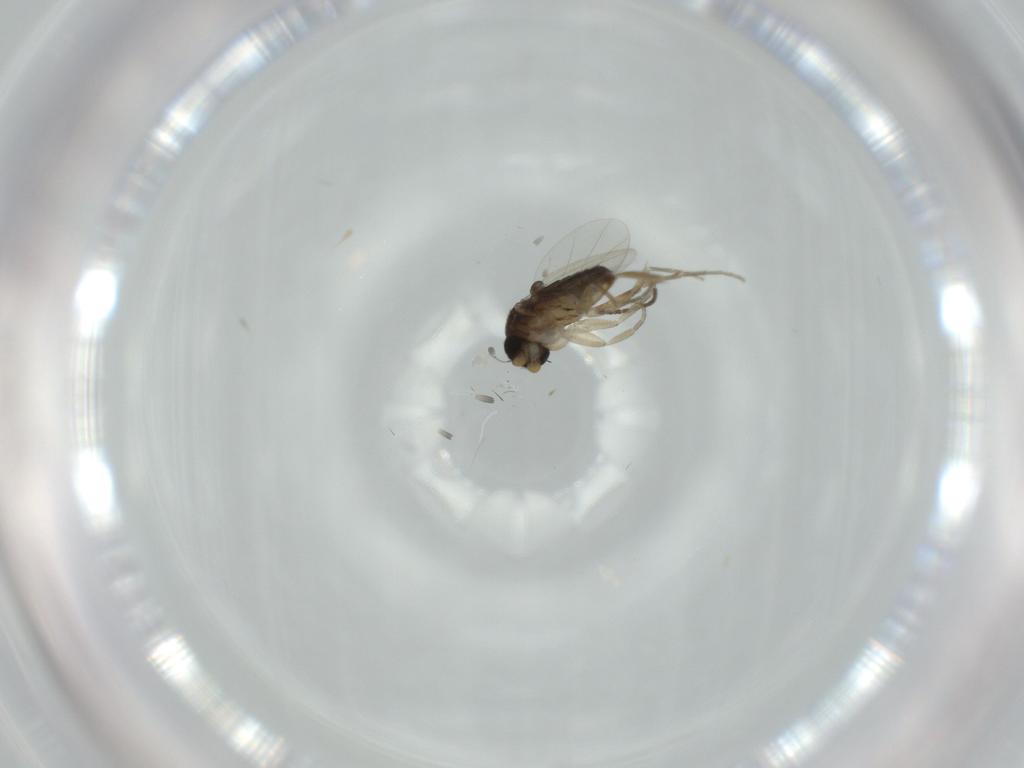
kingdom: Animalia
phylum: Arthropoda
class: Insecta
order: Diptera
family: Phoridae
